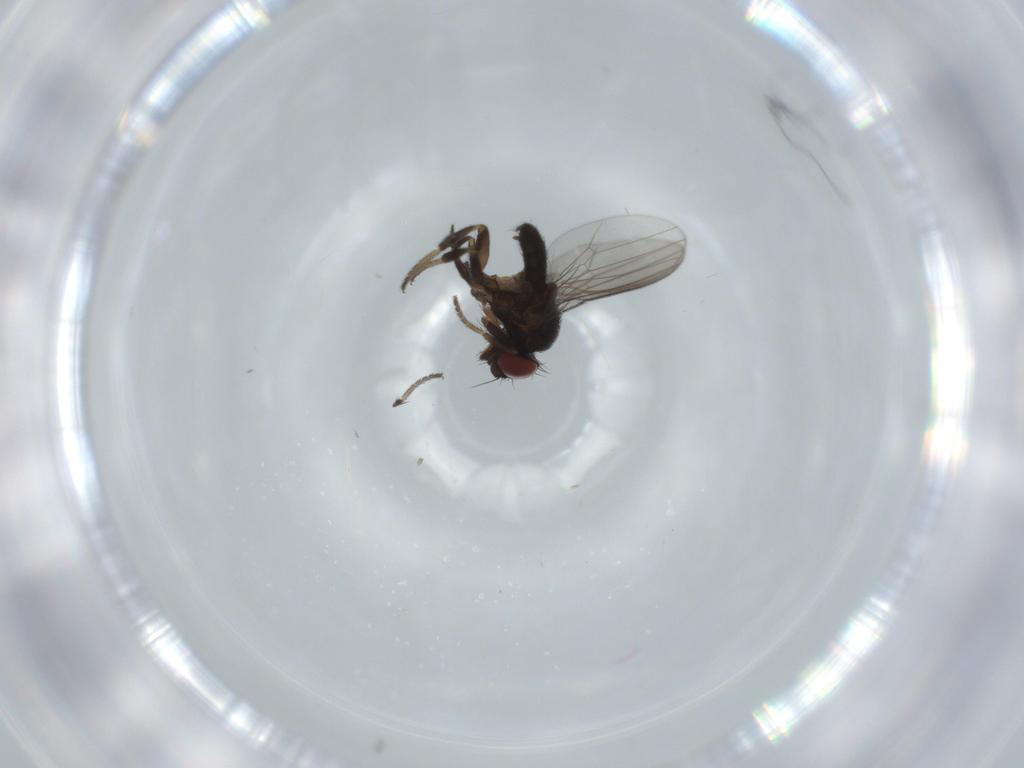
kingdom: Animalia
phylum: Arthropoda
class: Insecta
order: Diptera
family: Milichiidae
